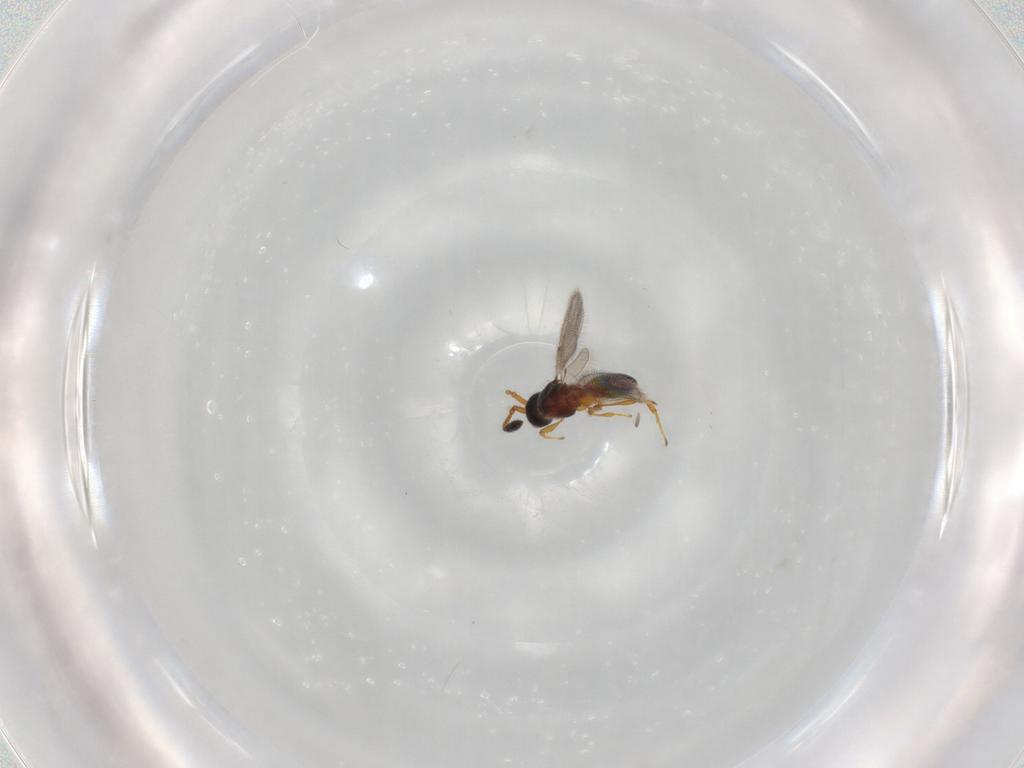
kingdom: Animalia
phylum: Arthropoda
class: Insecta
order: Hymenoptera
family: Diapriidae
